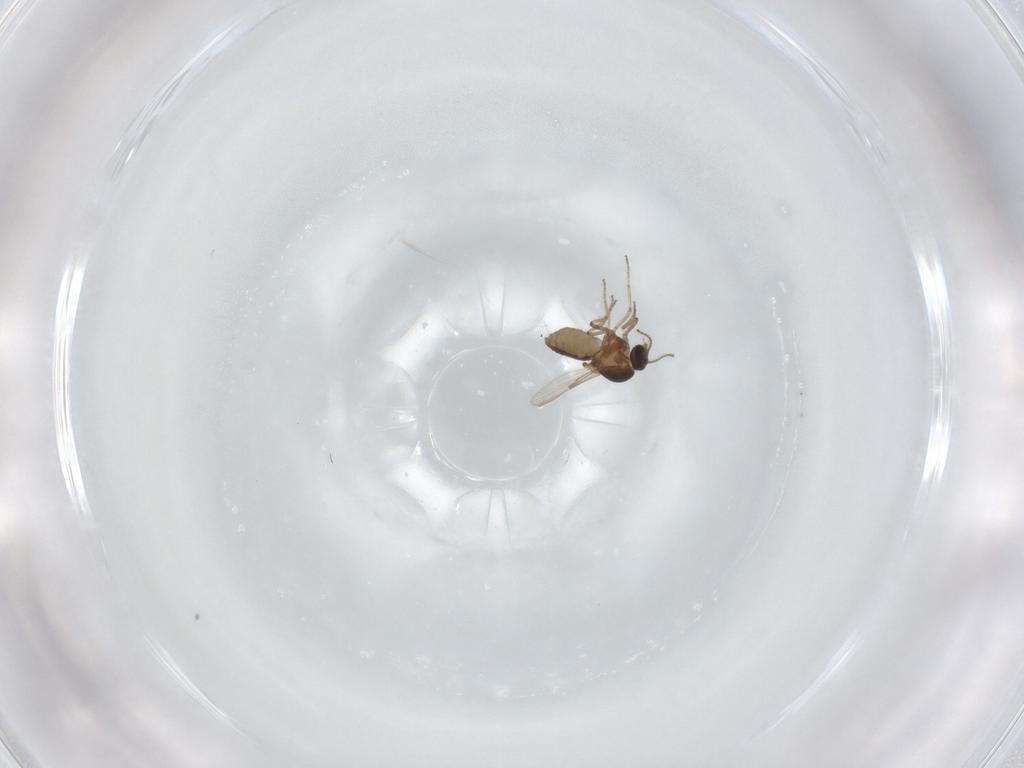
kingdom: Animalia
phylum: Arthropoda
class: Insecta
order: Diptera
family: Ceratopogonidae
